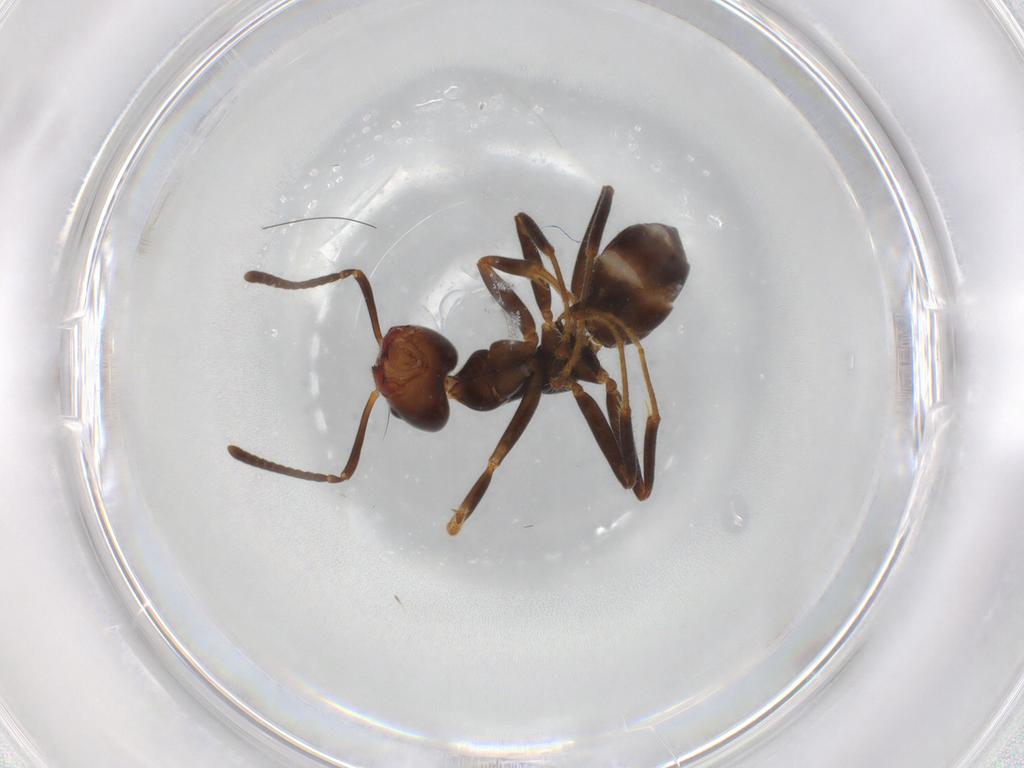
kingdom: Animalia
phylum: Arthropoda
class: Insecta
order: Hymenoptera
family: Formicidae
